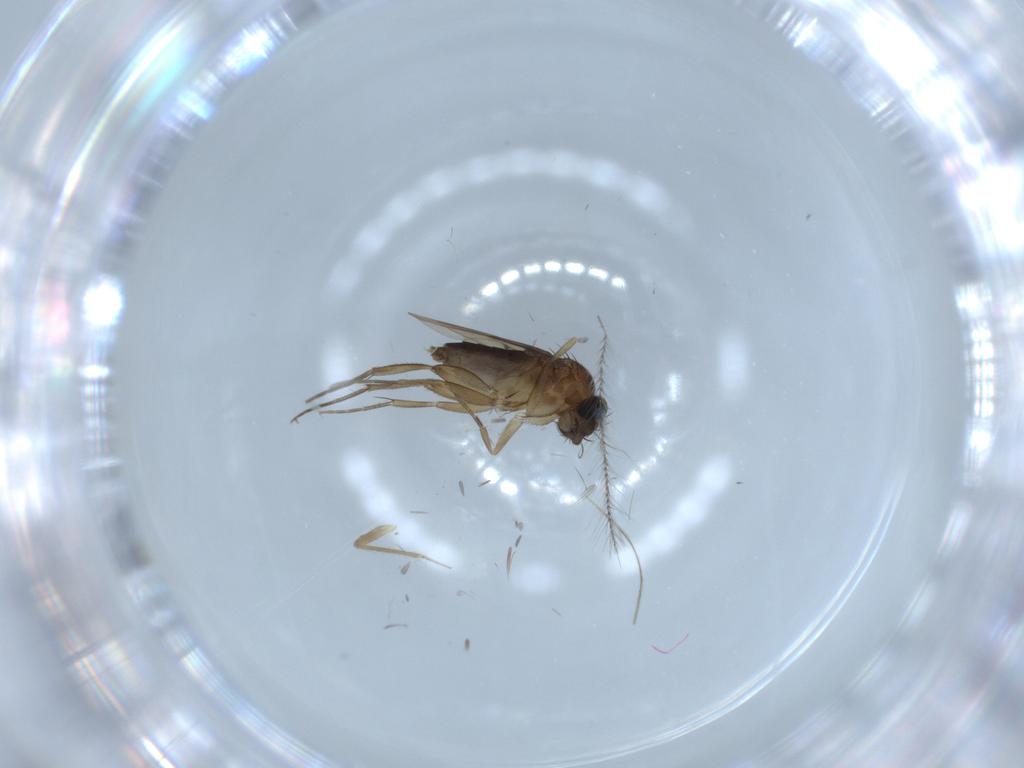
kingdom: Animalia
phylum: Arthropoda
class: Insecta
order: Diptera
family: Phoridae
